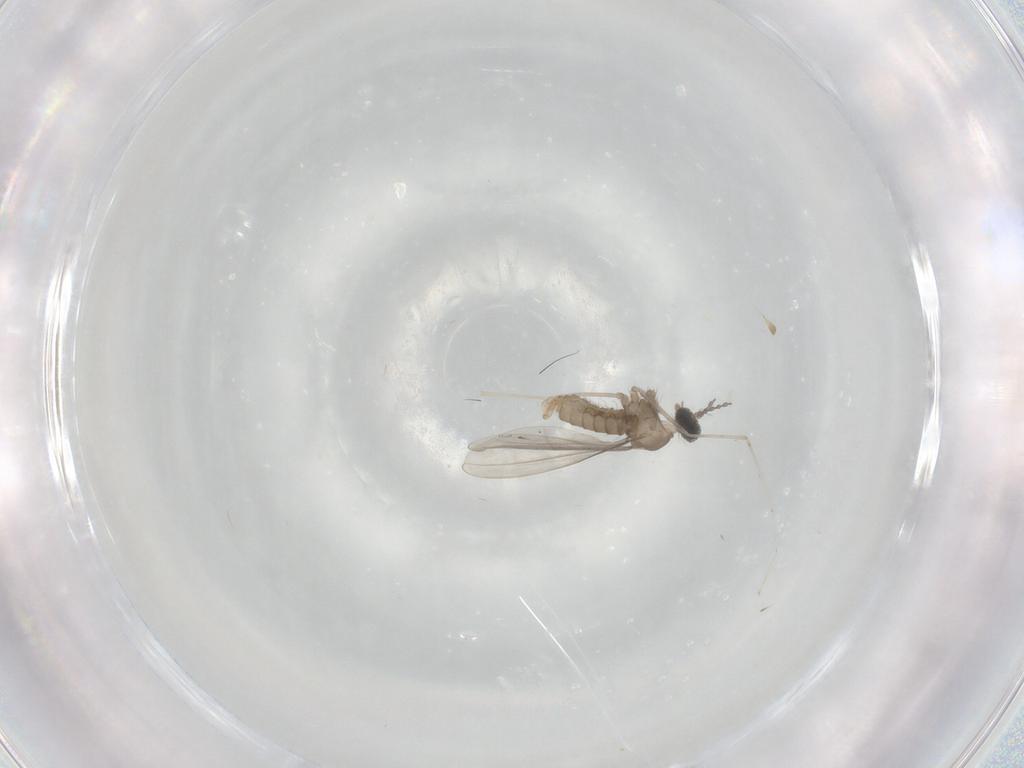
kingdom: Animalia
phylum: Arthropoda
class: Insecta
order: Diptera
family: Cecidomyiidae
